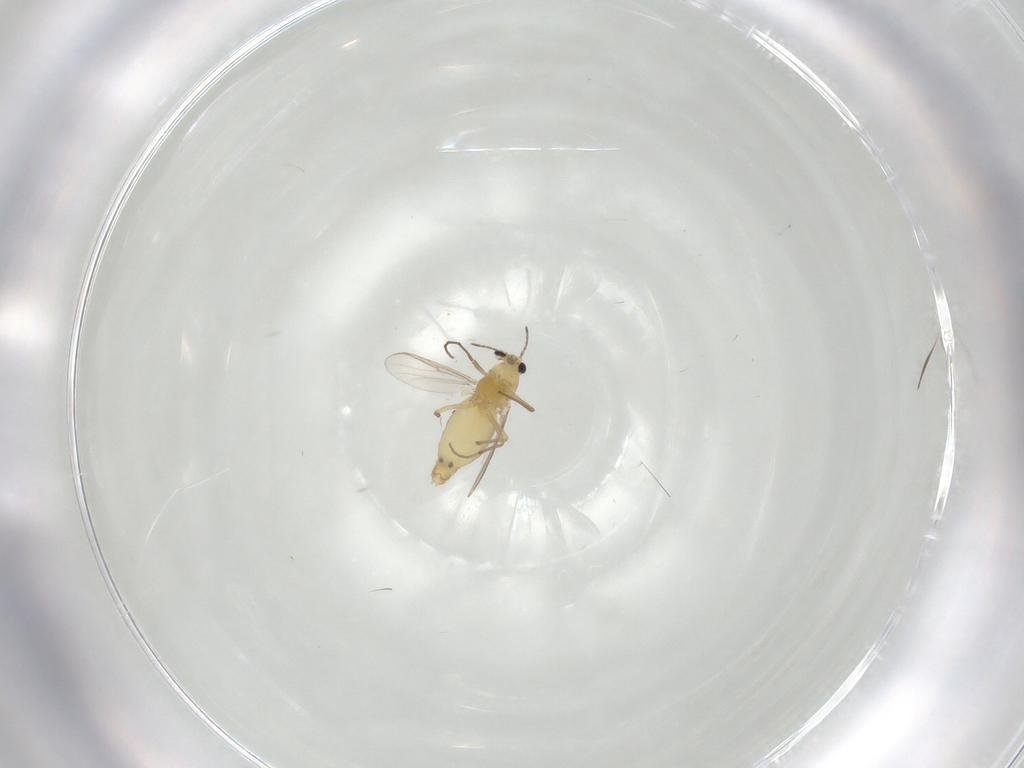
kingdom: Animalia
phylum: Arthropoda
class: Insecta
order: Diptera
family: Chironomidae
